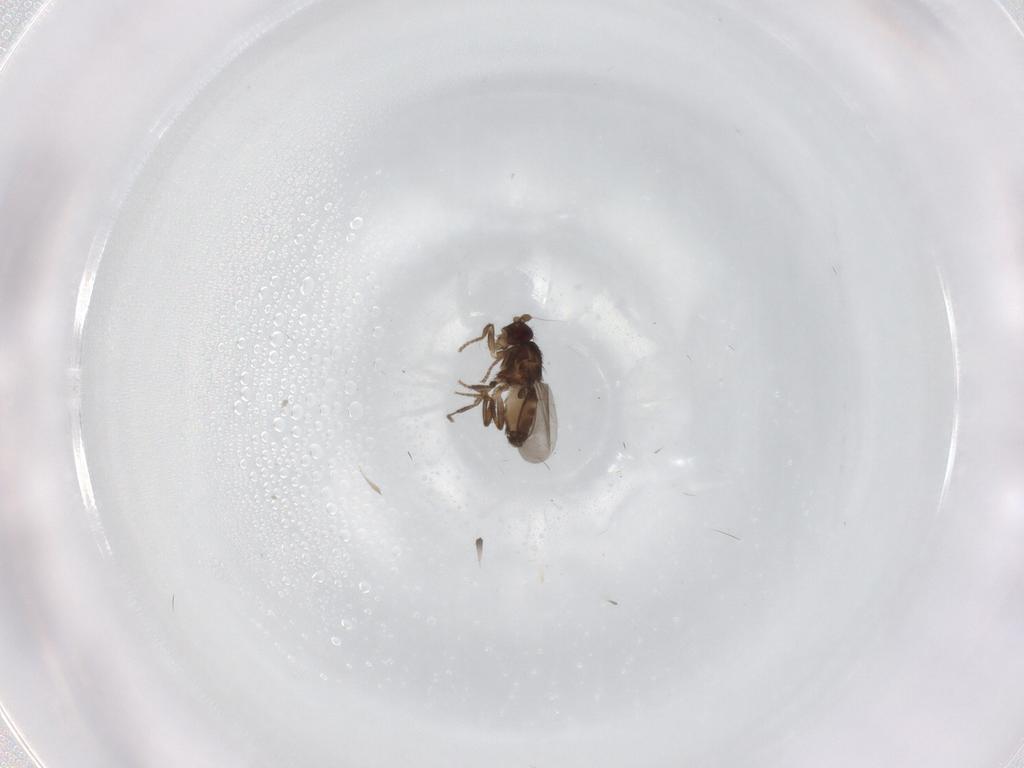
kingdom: Animalia
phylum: Arthropoda
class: Insecta
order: Diptera
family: Sphaeroceridae
